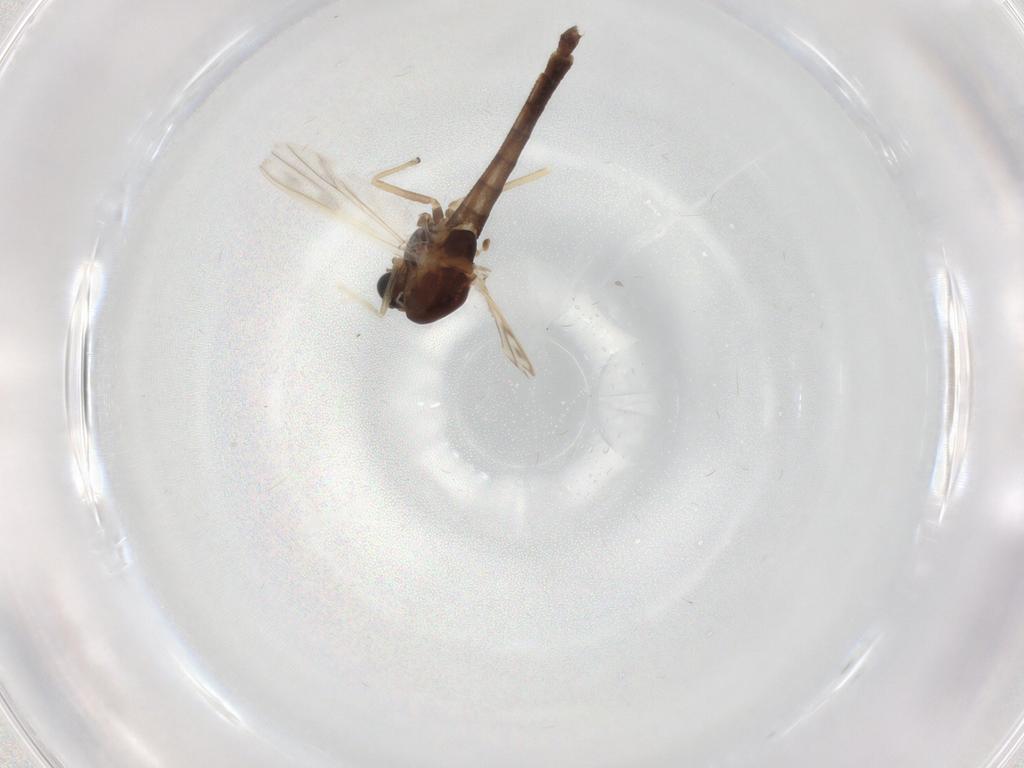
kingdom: Animalia
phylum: Arthropoda
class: Insecta
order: Diptera
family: Chironomidae
